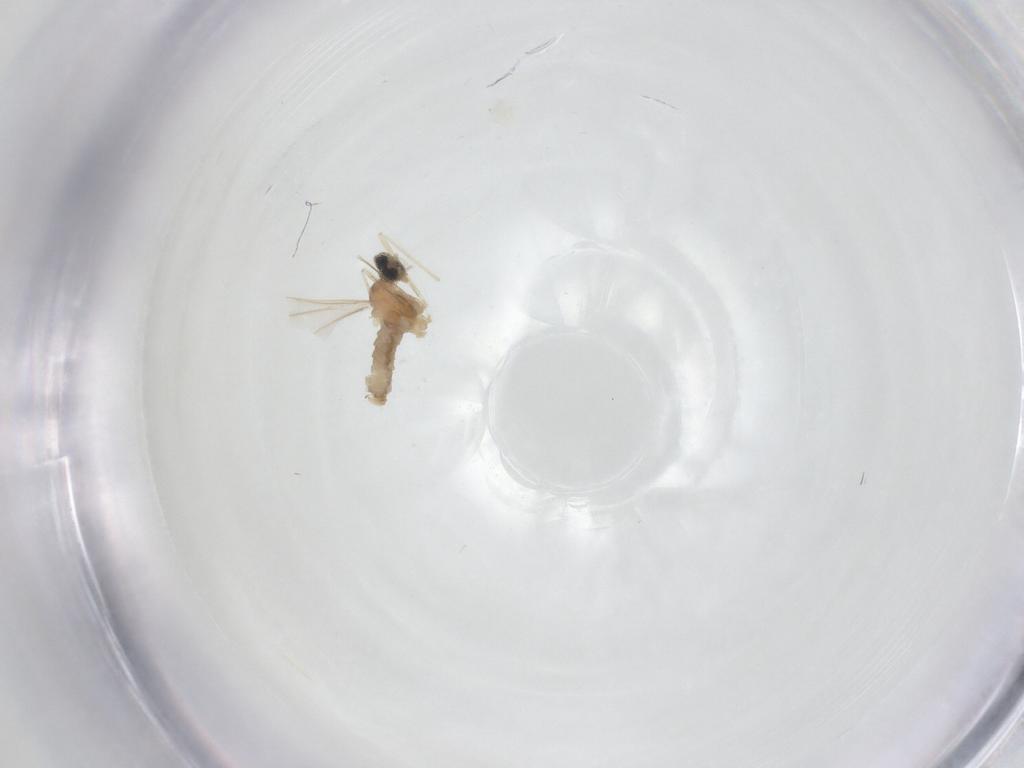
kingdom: Animalia
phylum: Arthropoda
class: Insecta
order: Diptera
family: Cecidomyiidae
